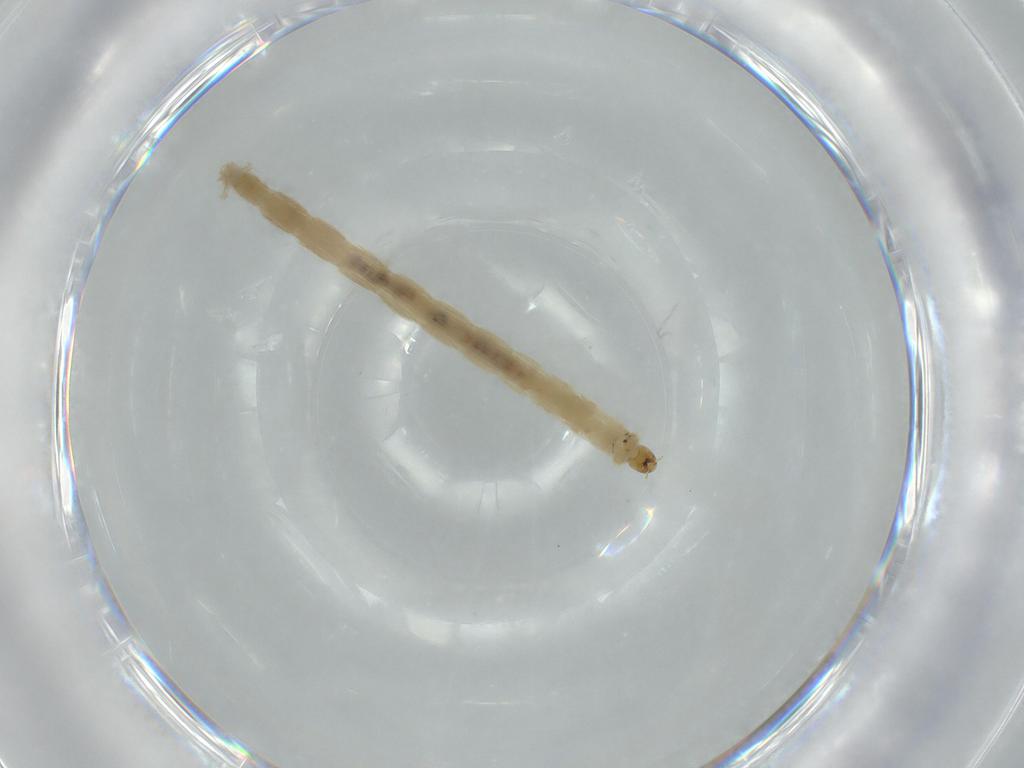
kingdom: Animalia
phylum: Arthropoda
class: Insecta
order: Diptera
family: Chironomidae
